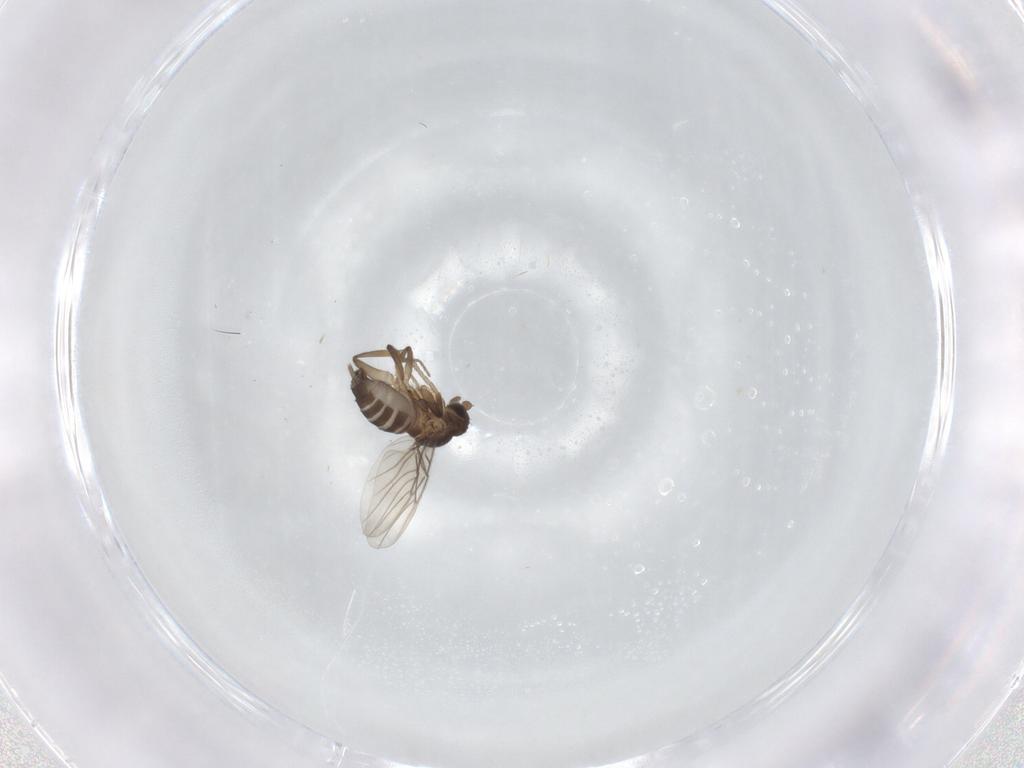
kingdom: Animalia
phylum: Arthropoda
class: Insecta
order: Diptera
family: Phoridae
